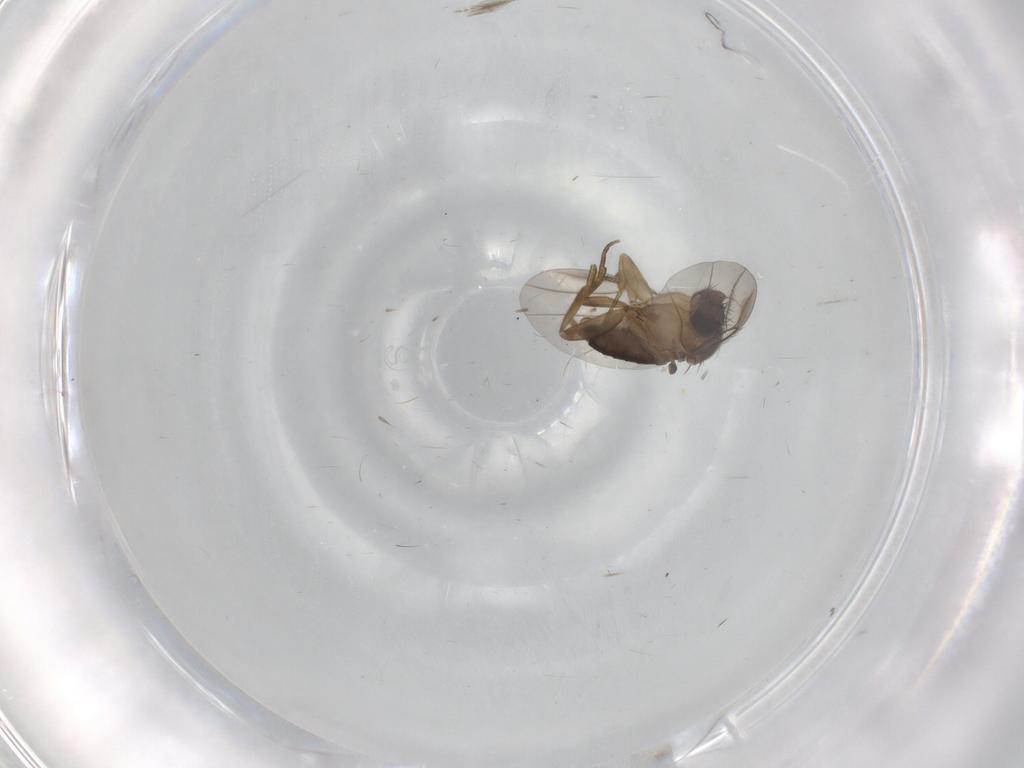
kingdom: Animalia
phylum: Arthropoda
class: Insecta
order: Diptera
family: Phoridae
